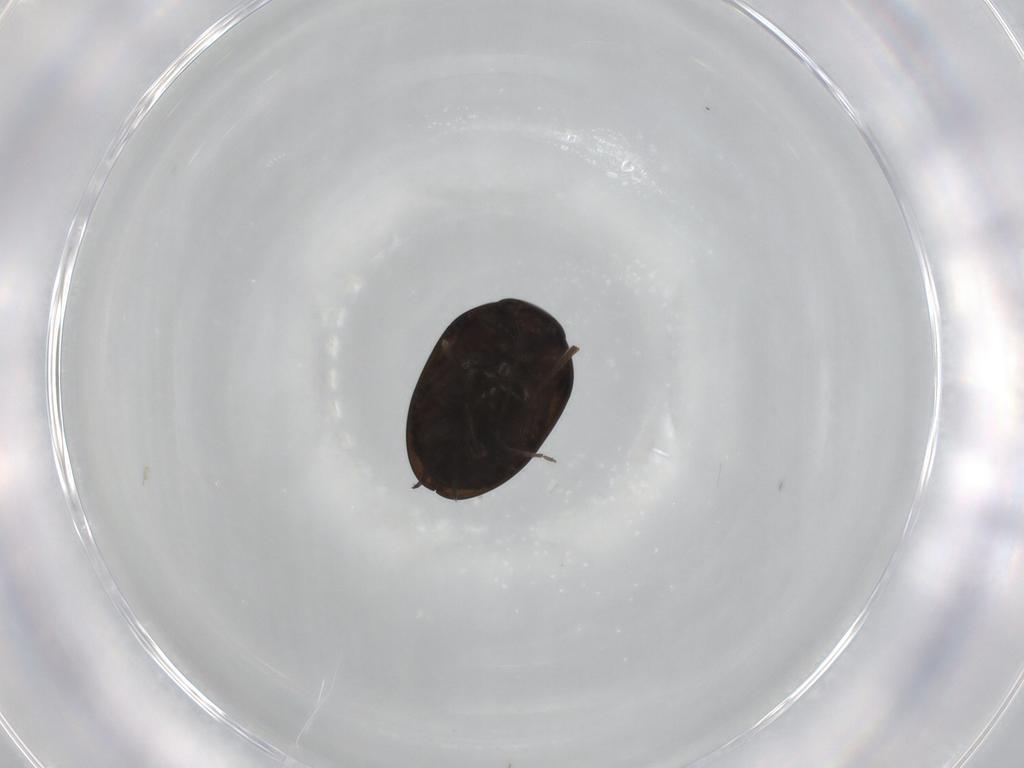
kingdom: Animalia
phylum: Arthropoda
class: Insecta
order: Coleoptera
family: Phalacridae
